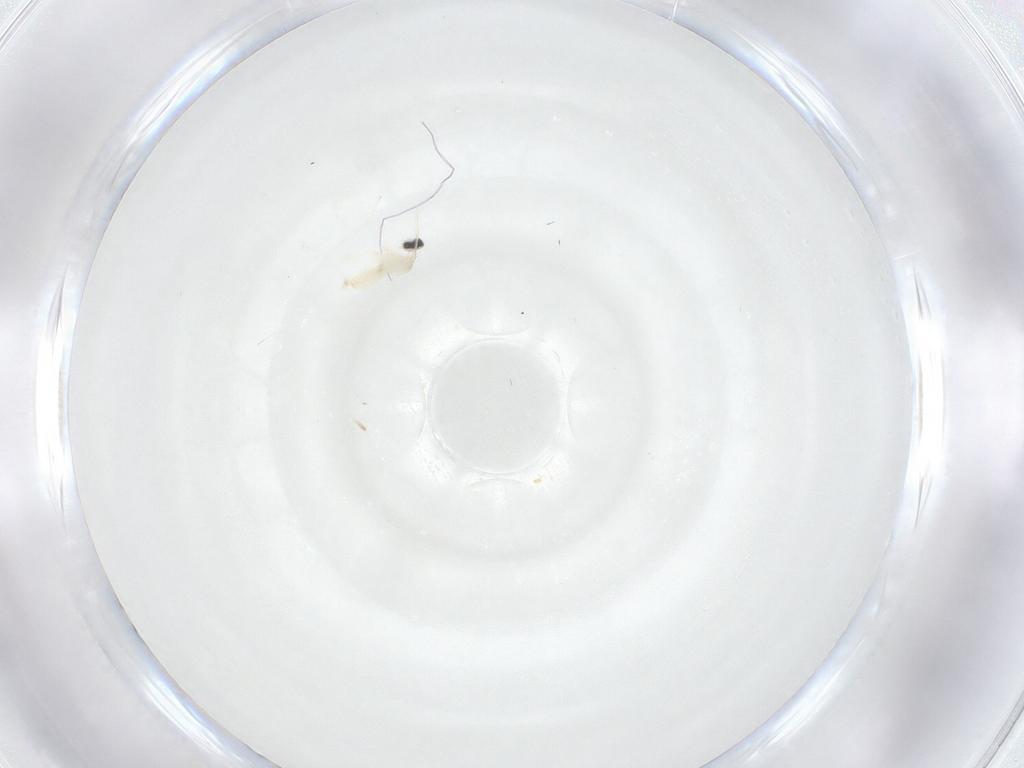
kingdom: Animalia
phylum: Arthropoda
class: Insecta
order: Diptera
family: Cecidomyiidae
